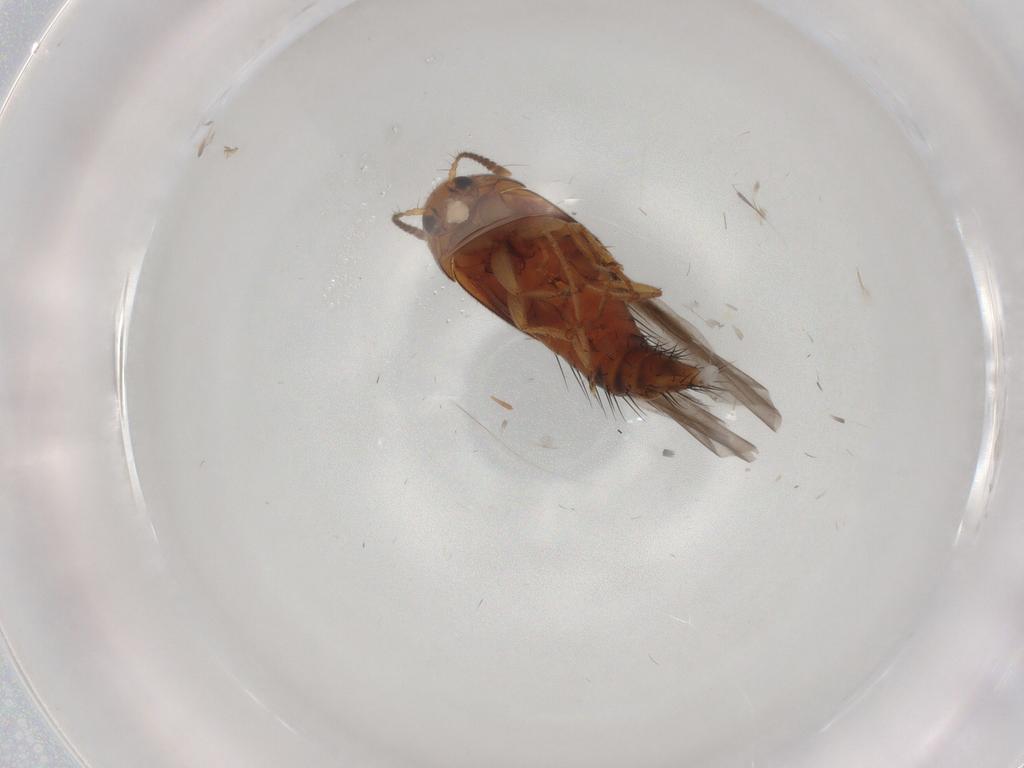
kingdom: Animalia
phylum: Arthropoda
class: Insecta
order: Coleoptera
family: Staphylinidae
